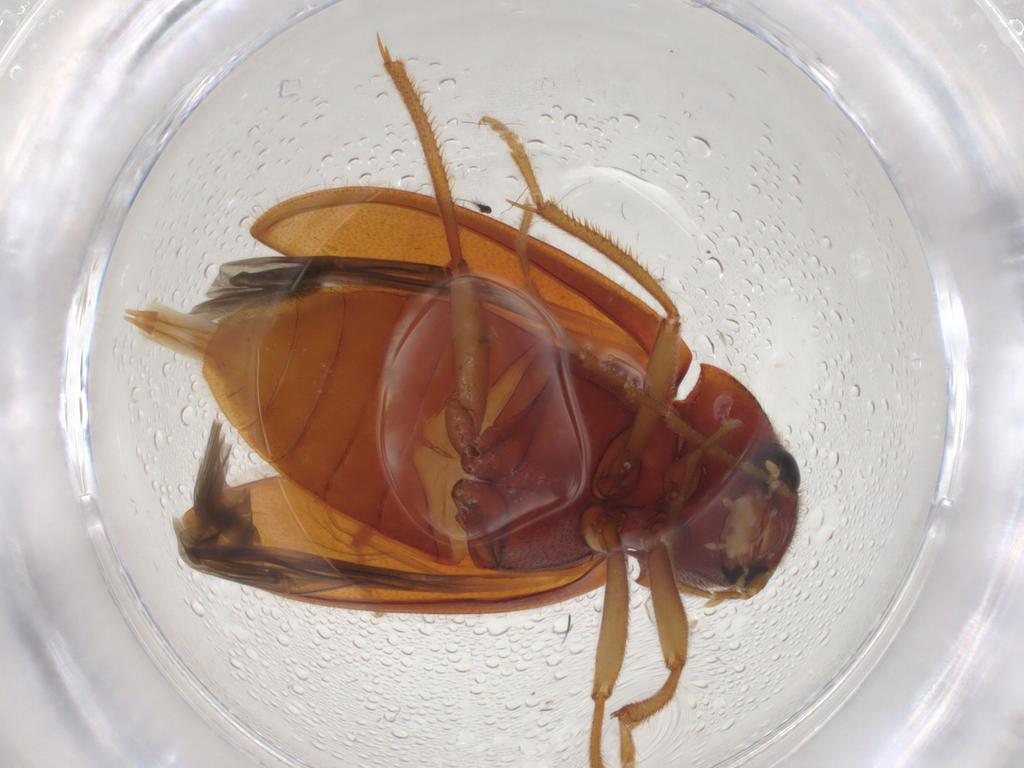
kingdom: Animalia
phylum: Arthropoda
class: Insecta
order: Coleoptera
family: Ptilodactylidae
